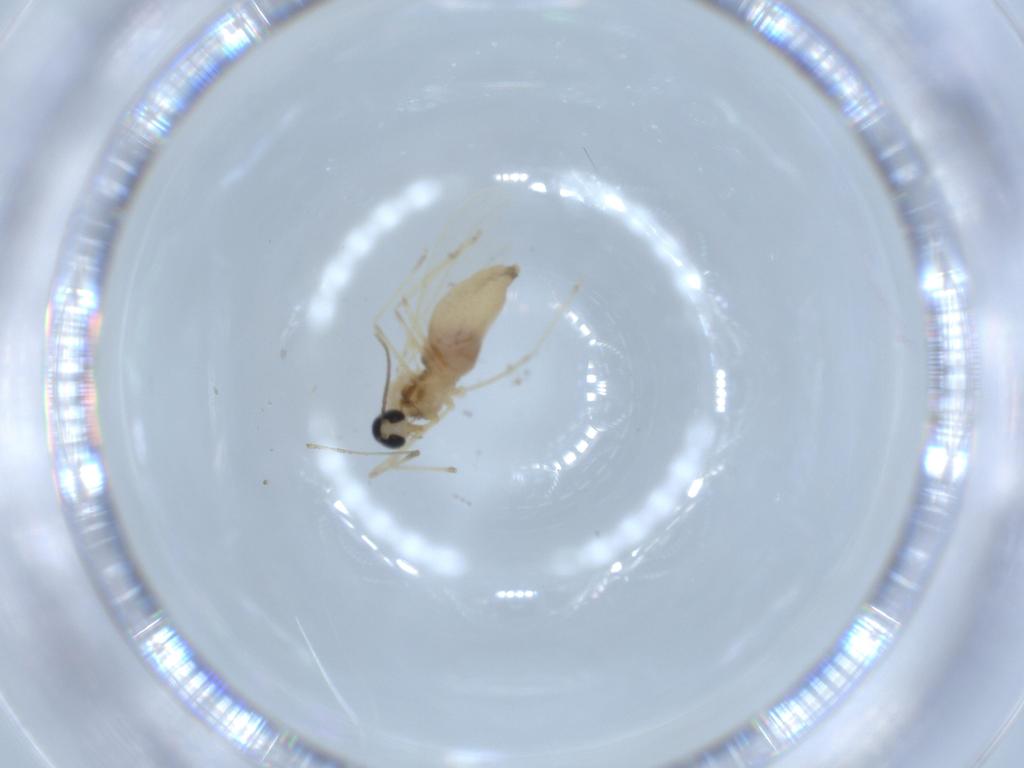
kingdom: Animalia
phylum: Arthropoda
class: Insecta
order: Diptera
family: Cecidomyiidae
